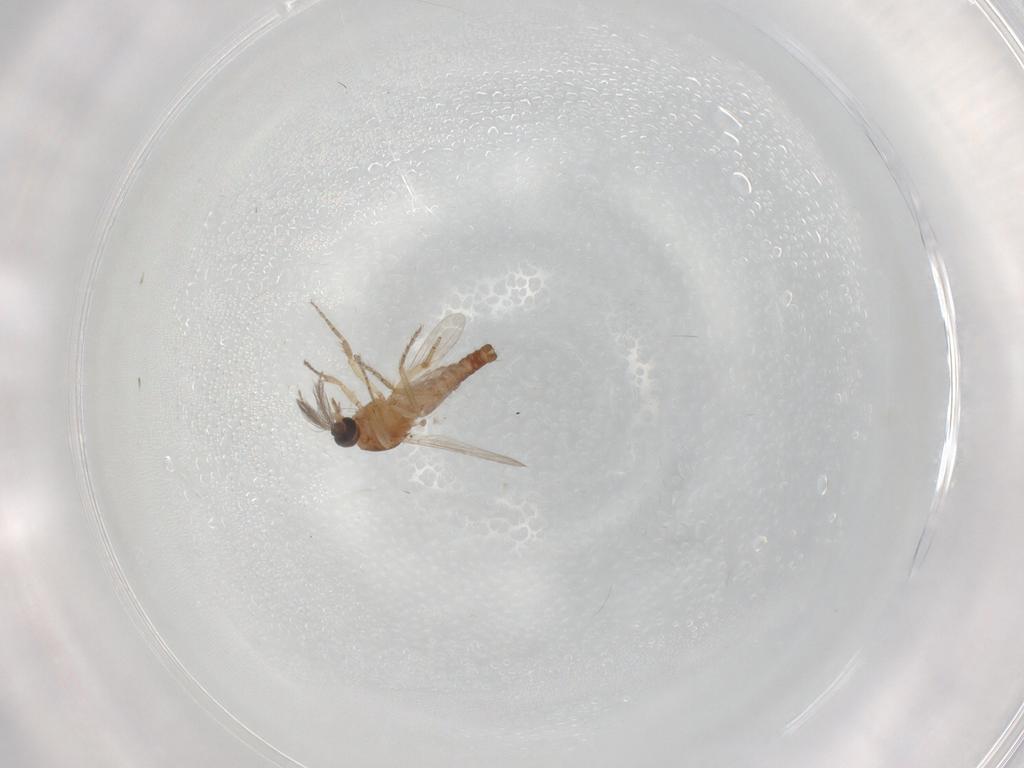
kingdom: Animalia
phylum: Arthropoda
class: Insecta
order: Diptera
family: Ceratopogonidae
